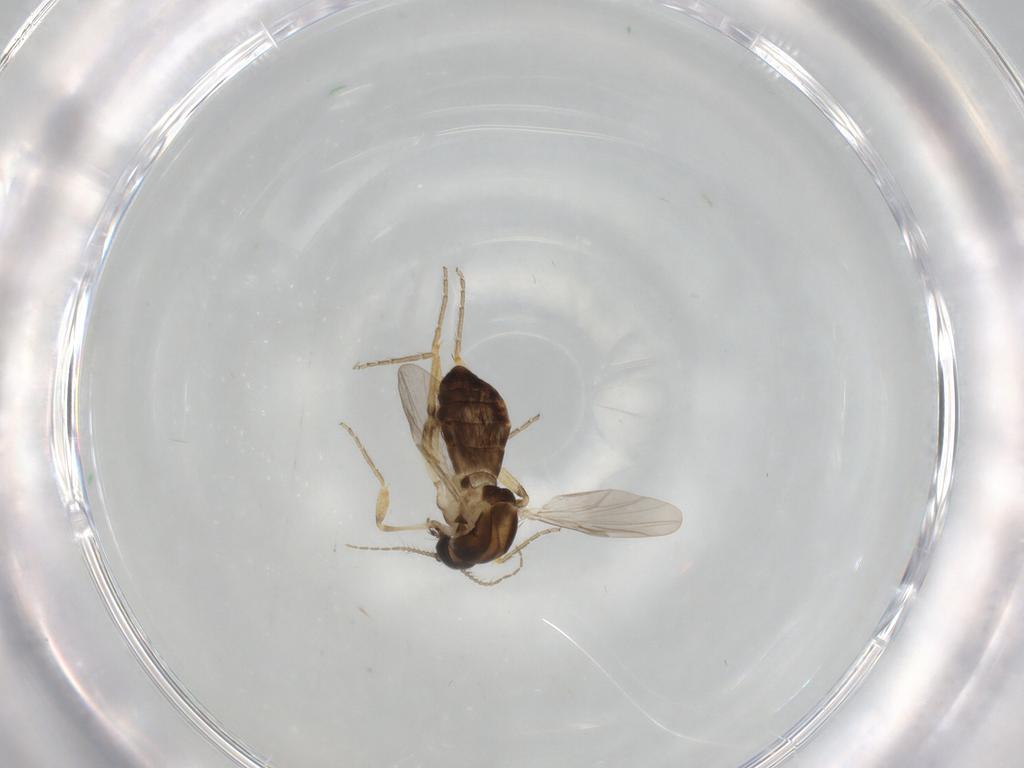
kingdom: Animalia
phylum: Arthropoda
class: Insecta
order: Diptera
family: Ceratopogonidae
